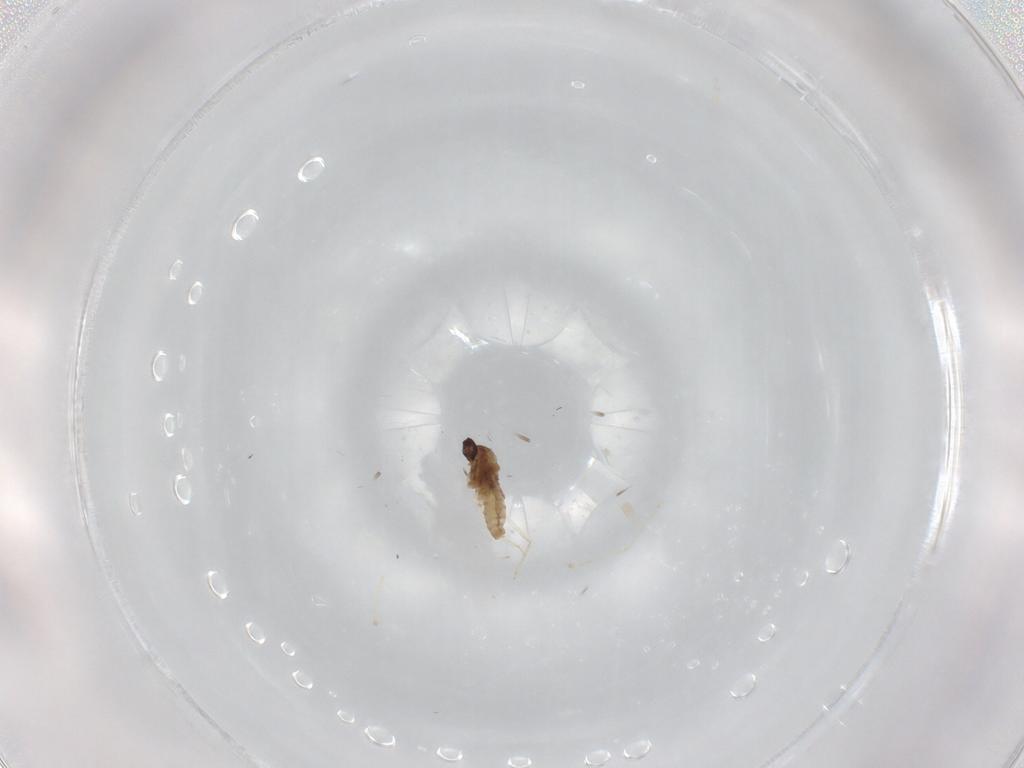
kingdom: Animalia
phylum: Arthropoda
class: Insecta
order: Diptera
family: Cecidomyiidae
